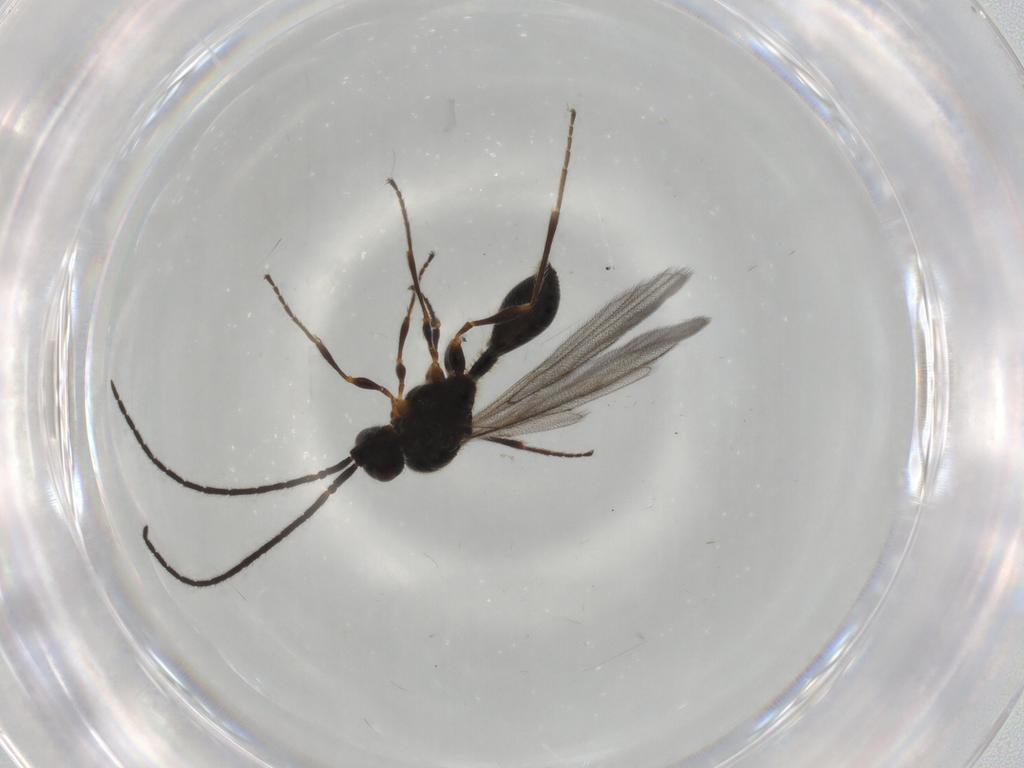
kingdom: Animalia
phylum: Arthropoda
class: Insecta
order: Hymenoptera
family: Diapriidae
